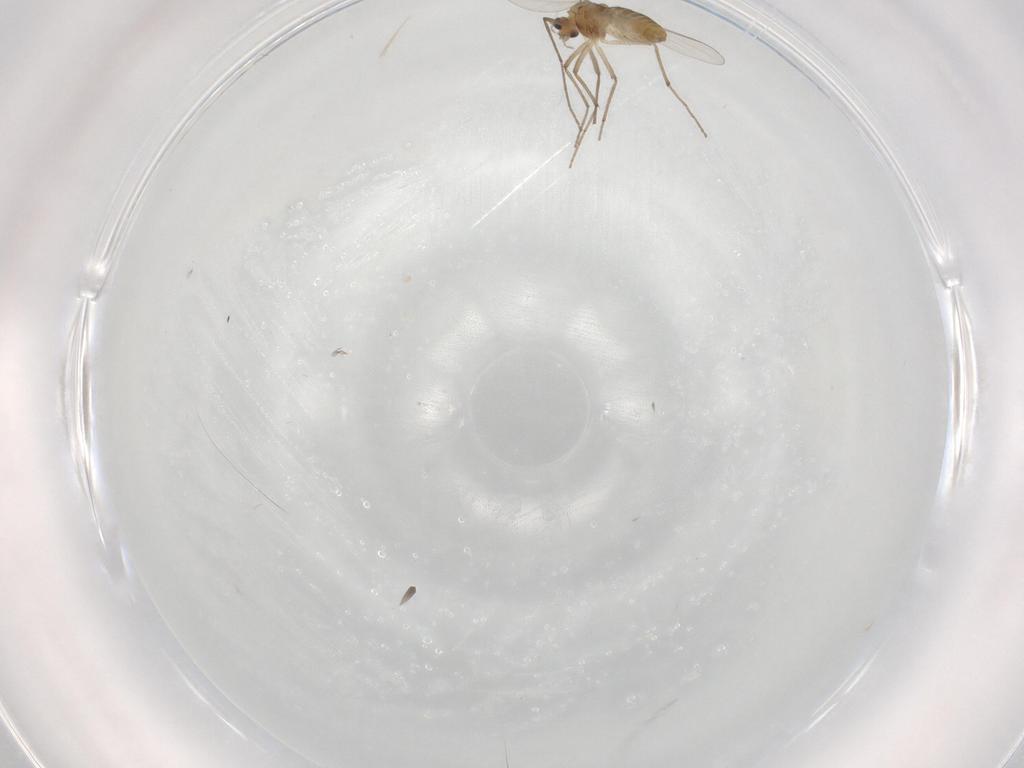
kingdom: Animalia
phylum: Arthropoda
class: Insecta
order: Diptera
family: Chironomidae
